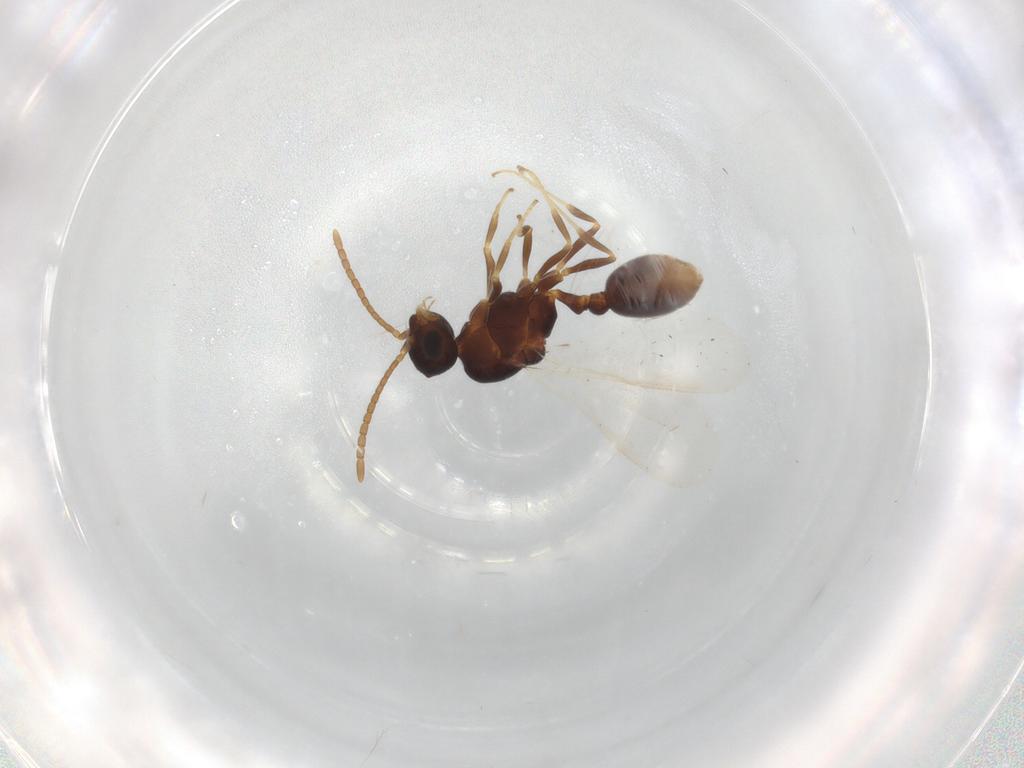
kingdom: Animalia
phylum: Arthropoda
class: Insecta
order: Hymenoptera
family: Formicidae
